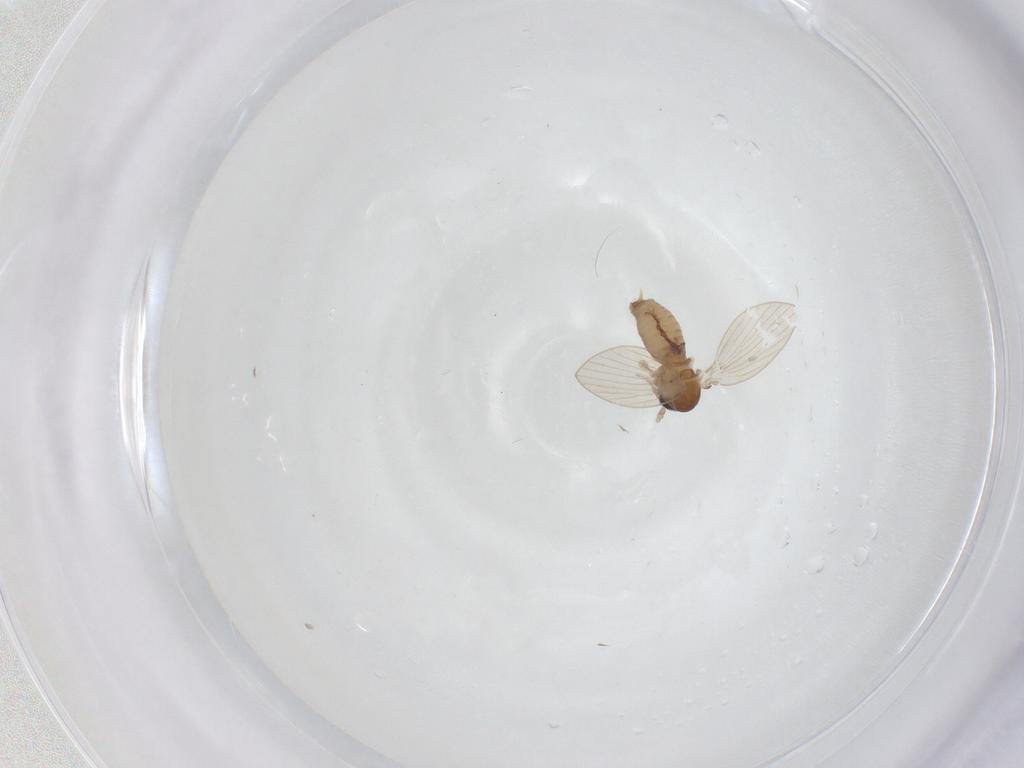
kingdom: Animalia
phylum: Arthropoda
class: Insecta
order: Diptera
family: Psychodidae
